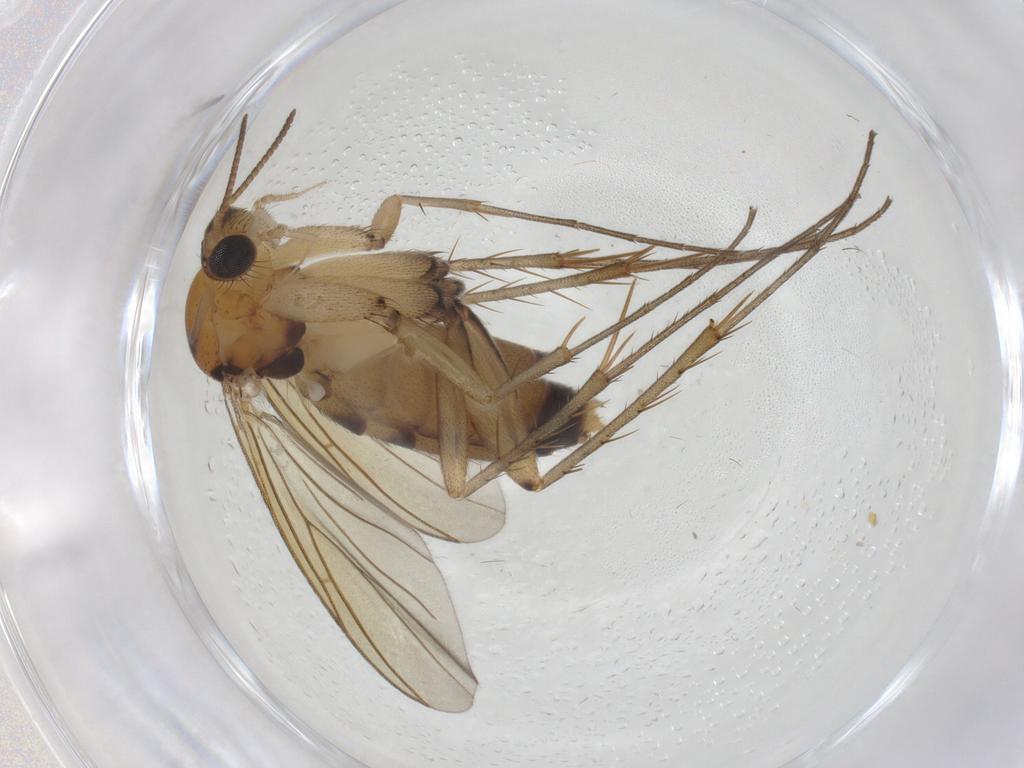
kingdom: Animalia
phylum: Arthropoda
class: Insecta
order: Diptera
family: Mycetophilidae
